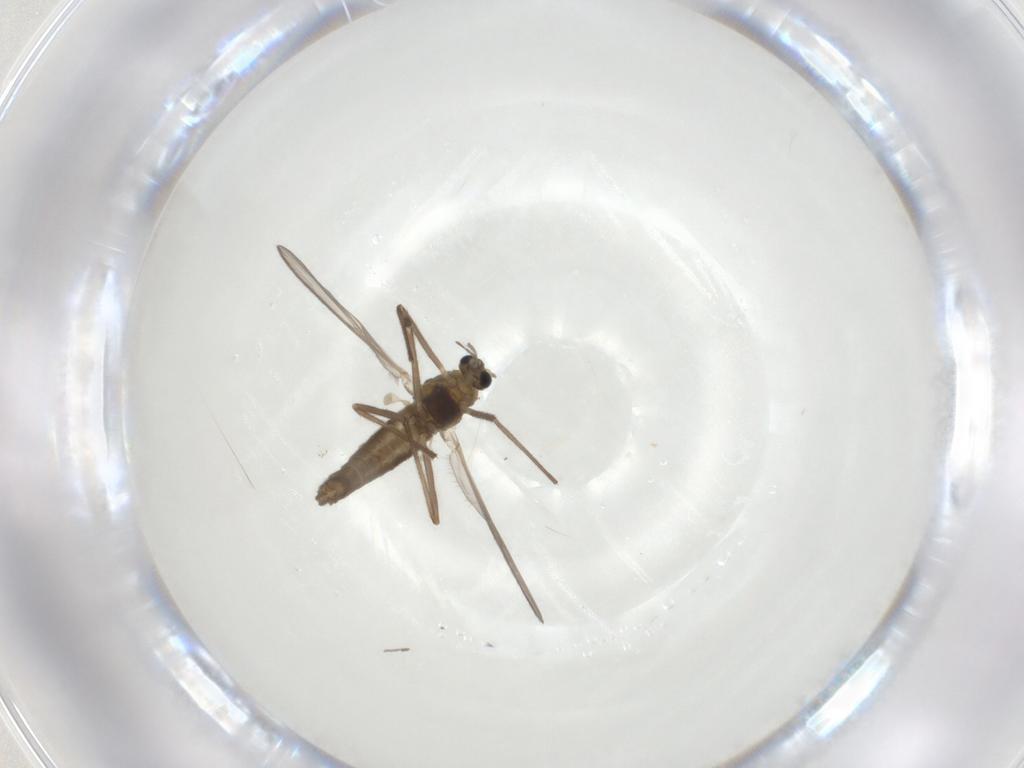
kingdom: Animalia
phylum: Arthropoda
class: Insecta
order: Diptera
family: Chironomidae
